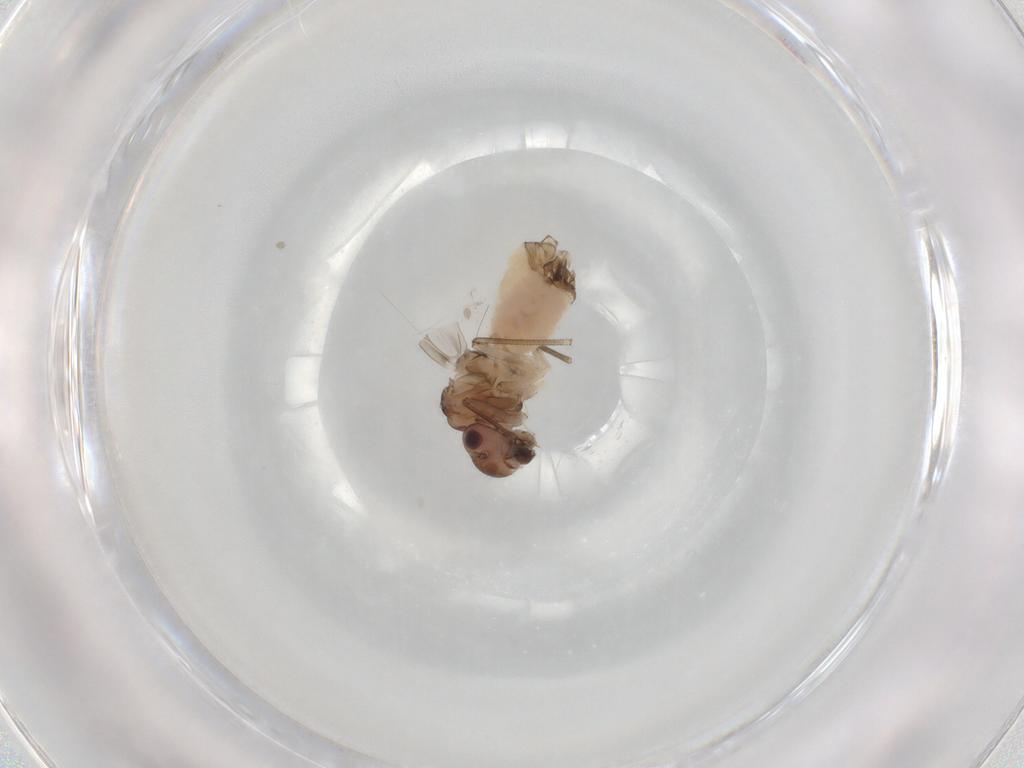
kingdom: Animalia
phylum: Arthropoda
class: Insecta
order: Psocodea
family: Peripsocidae
